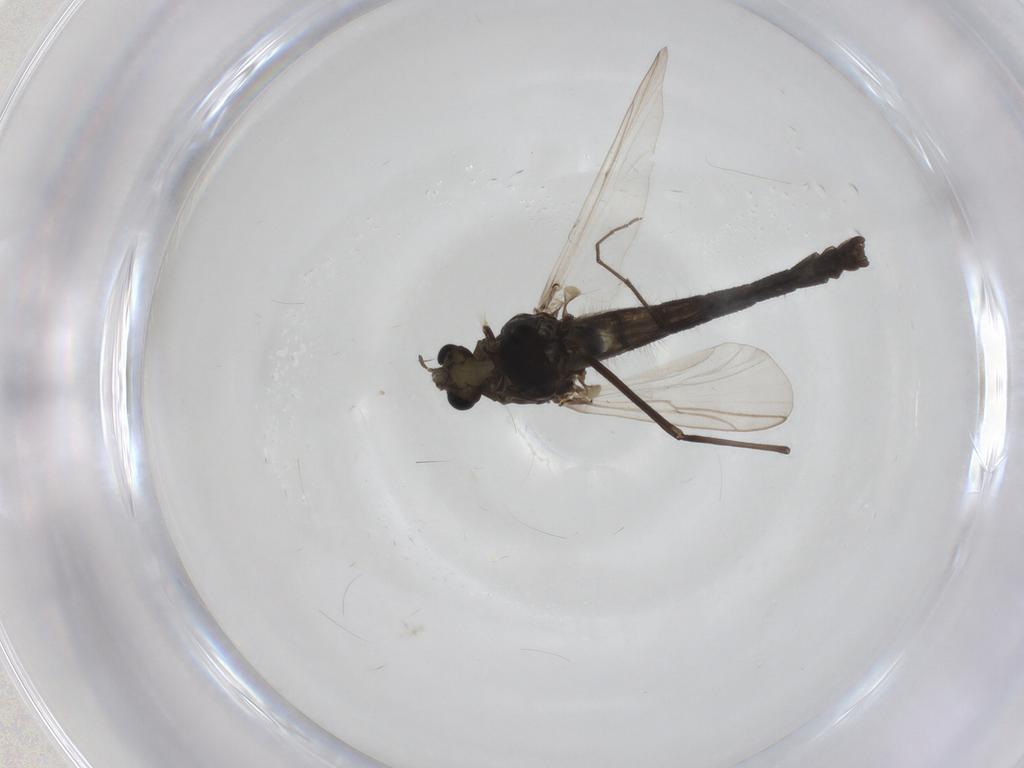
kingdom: Animalia
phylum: Arthropoda
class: Insecta
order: Diptera
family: Chironomidae
